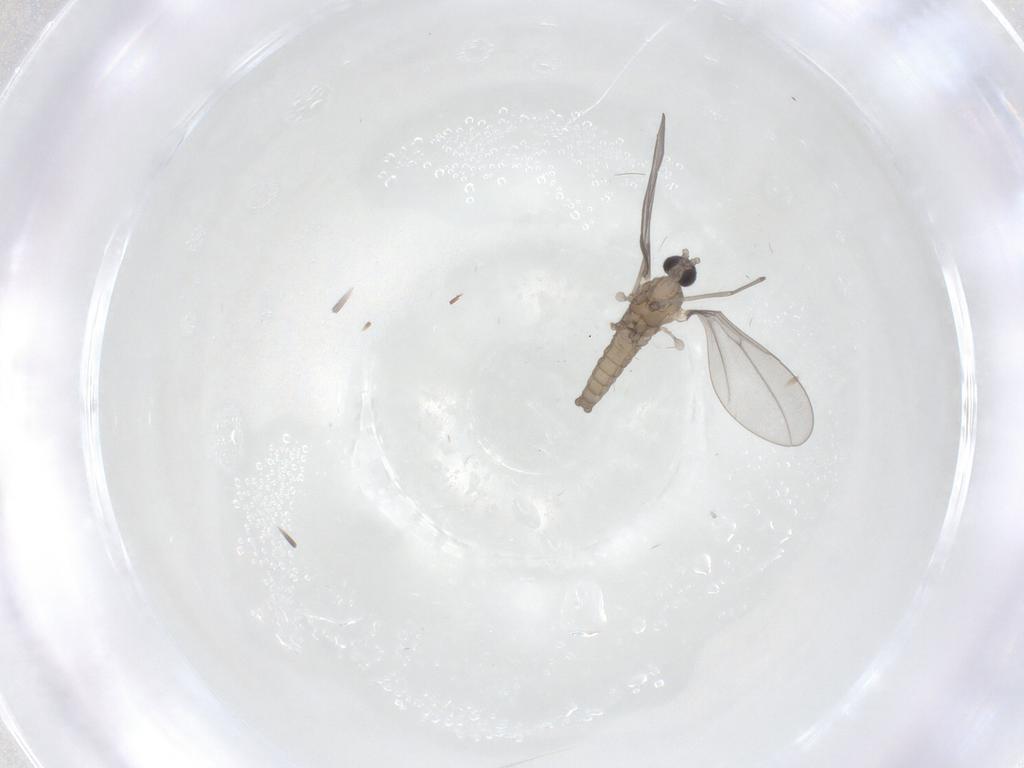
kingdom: Animalia
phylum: Arthropoda
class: Insecta
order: Diptera
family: Cecidomyiidae
